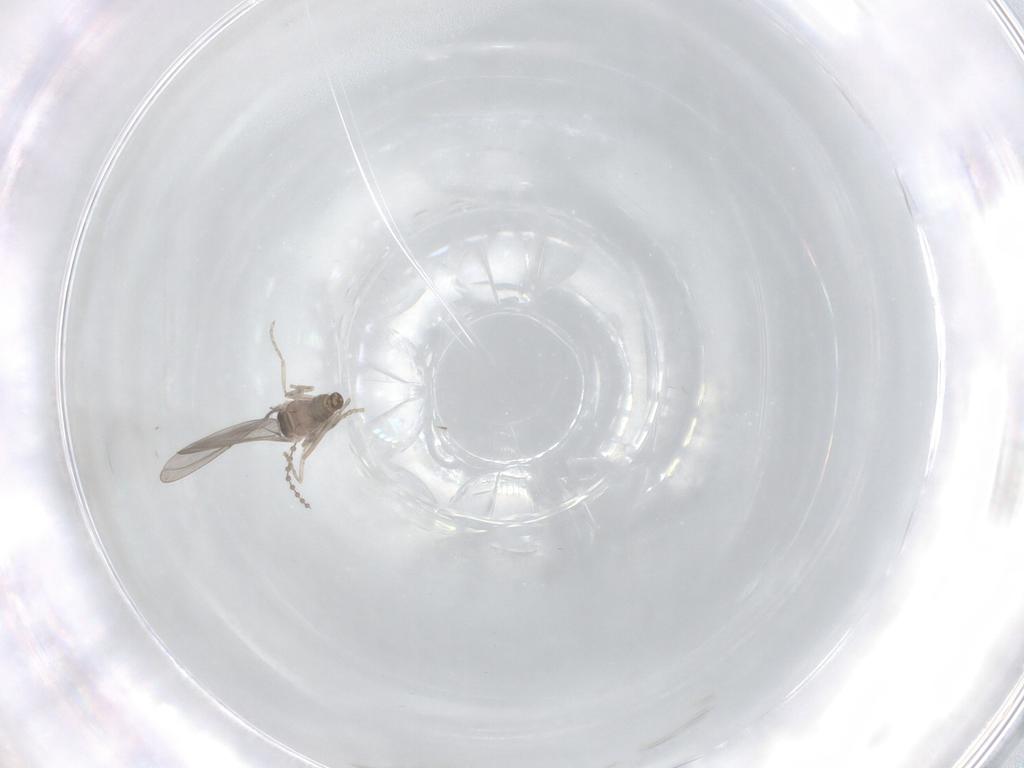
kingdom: Animalia
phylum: Arthropoda
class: Insecta
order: Diptera
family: Cecidomyiidae
